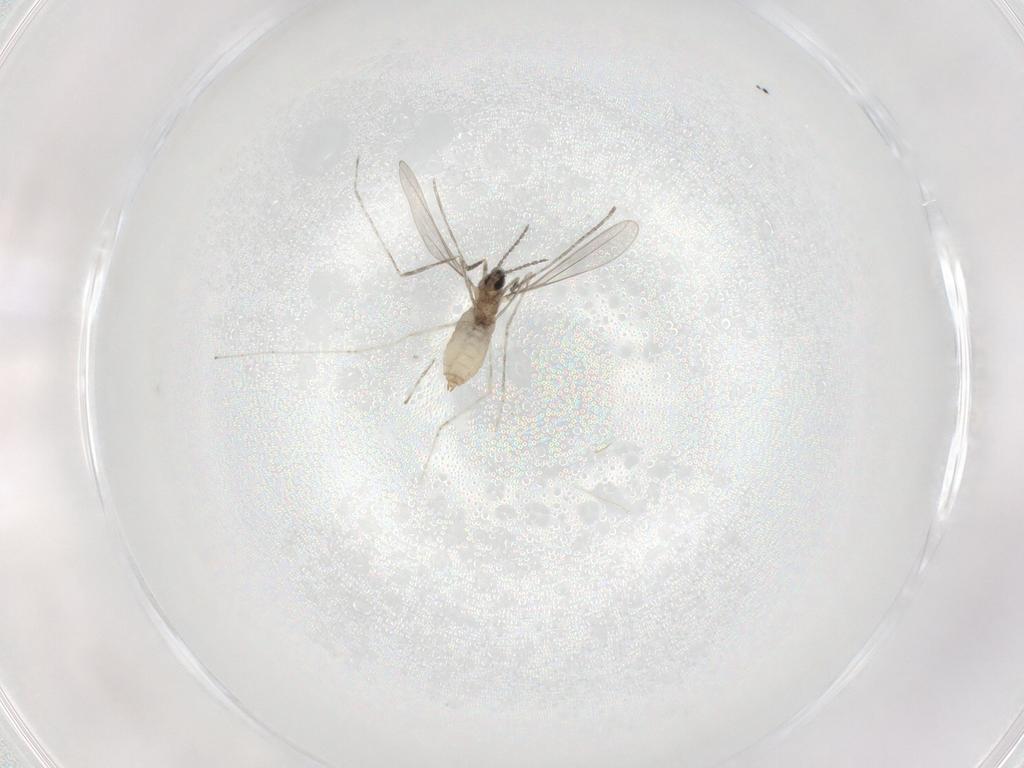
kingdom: Animalia
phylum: Arthropoda
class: Insecta
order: Diptera
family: Cecidomyiidae
